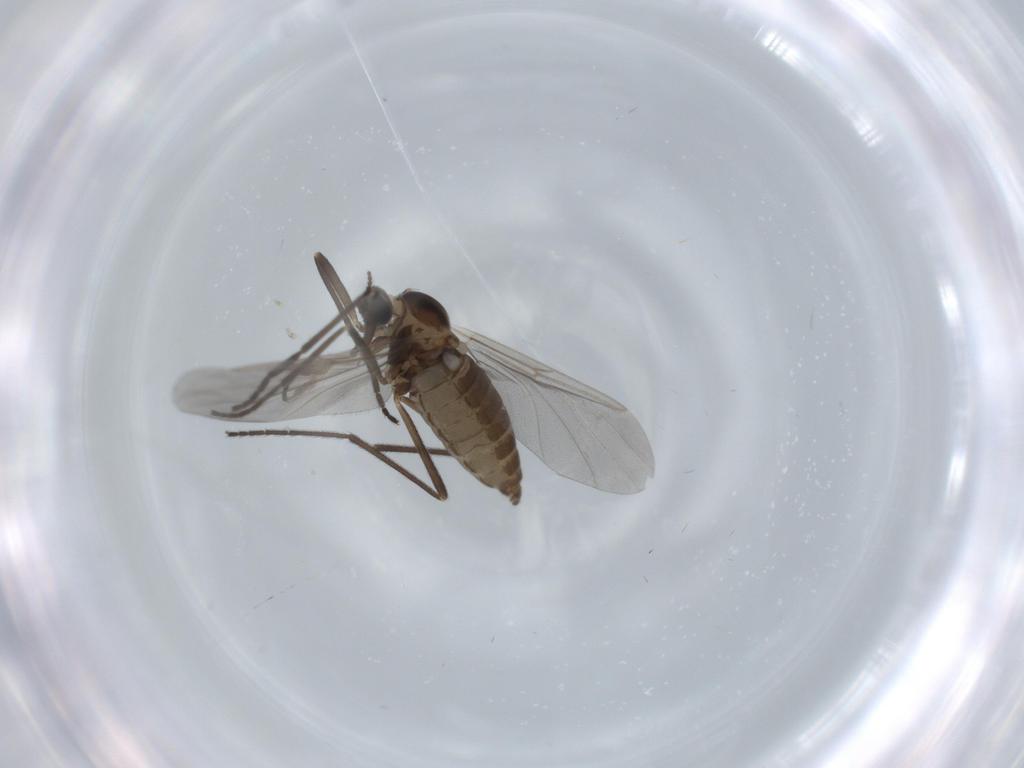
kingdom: Animalia
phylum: Arthropoda
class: Insecta
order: Diptera
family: Cecidomyiidae
